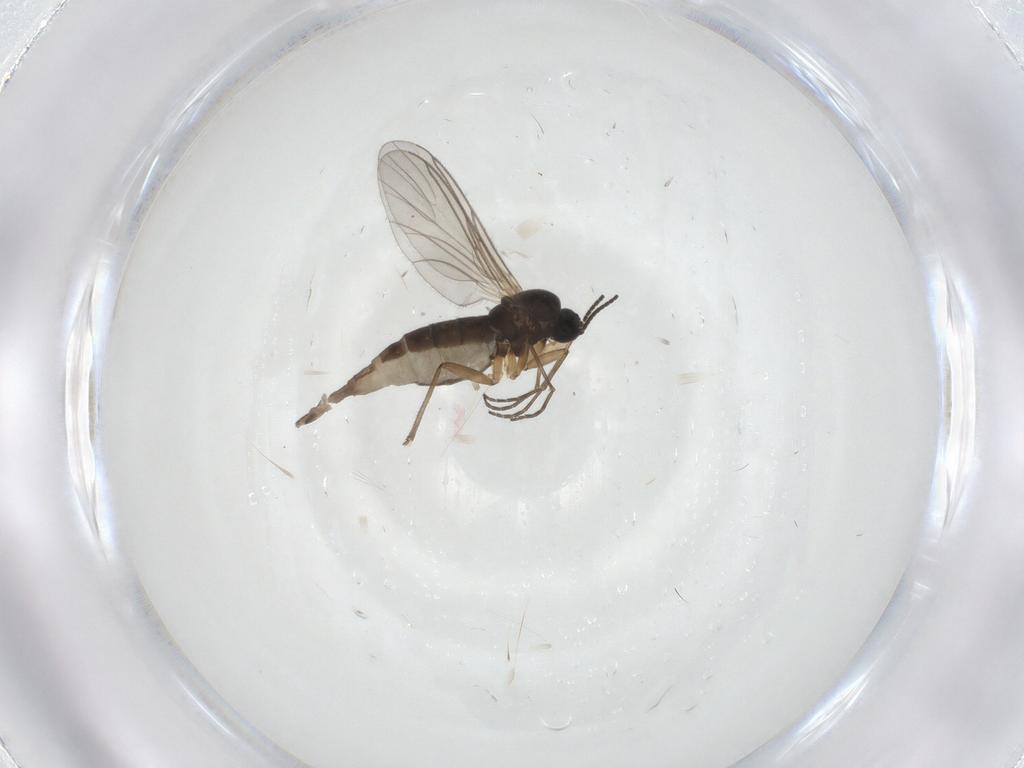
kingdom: Animalia
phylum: Arthropoda
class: Insecta
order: Diptera
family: Sciaridae
